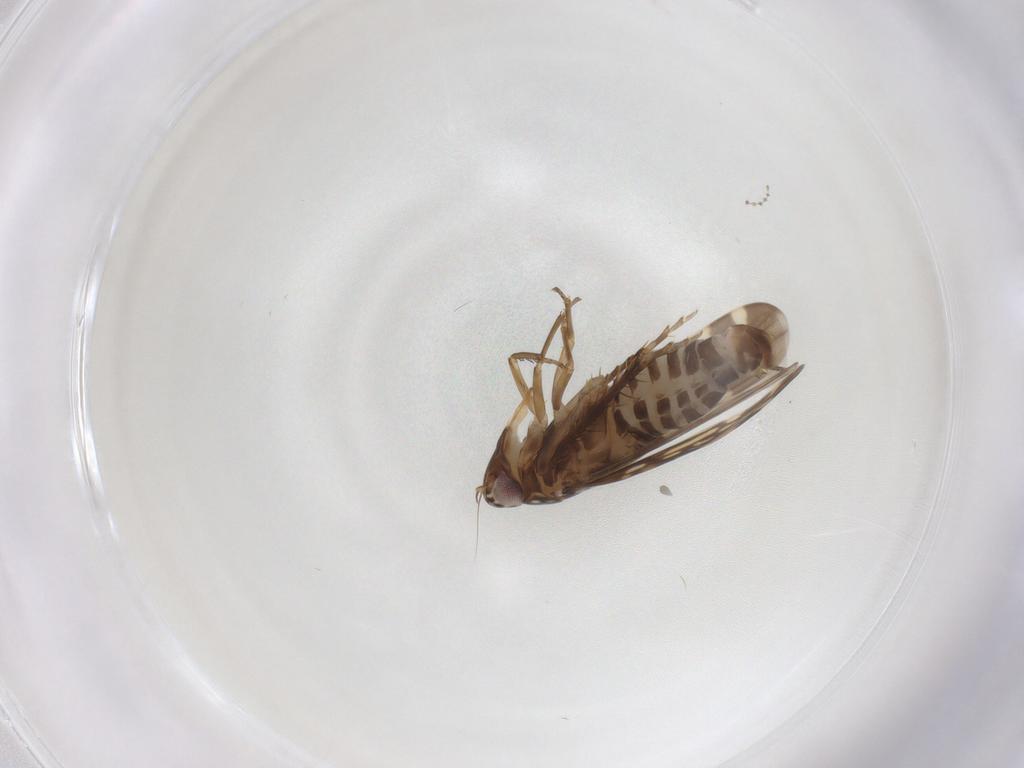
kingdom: Animalia
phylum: Arthropoda
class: Insecta
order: Hemiptera
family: Cicadellidae
